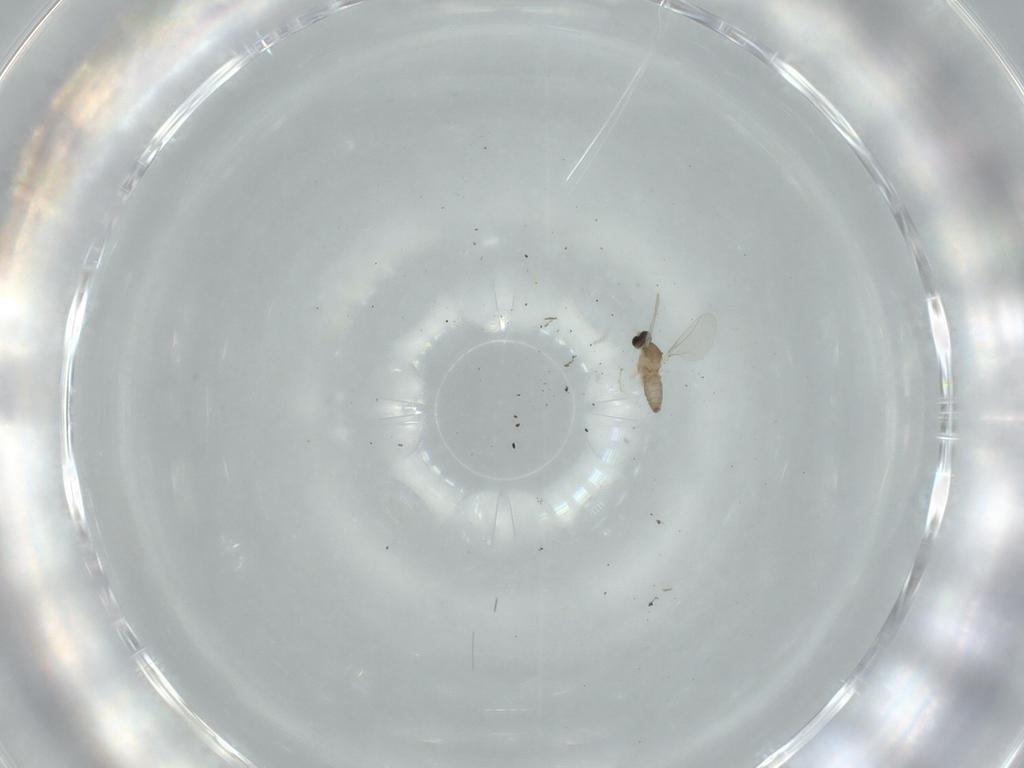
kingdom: Animalia
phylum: Arthropoda
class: Insecta
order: Diptera
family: Cecidomyiidae
